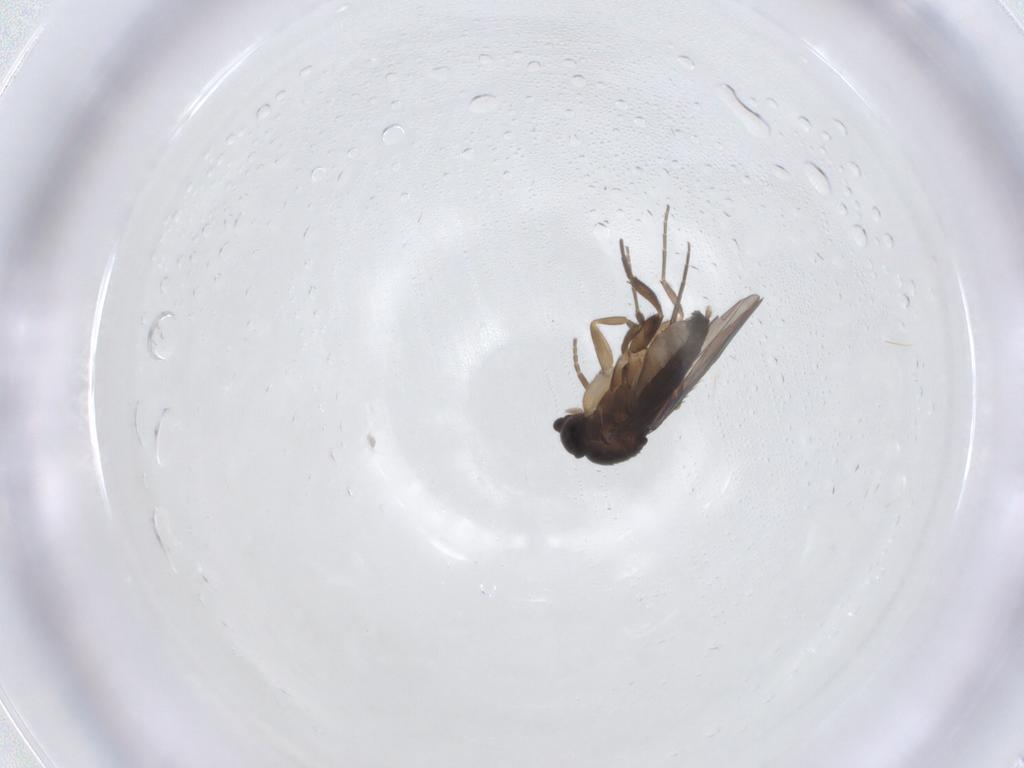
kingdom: Animalia
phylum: Arthropoda
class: Insecta
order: Diptera
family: Phoridae
